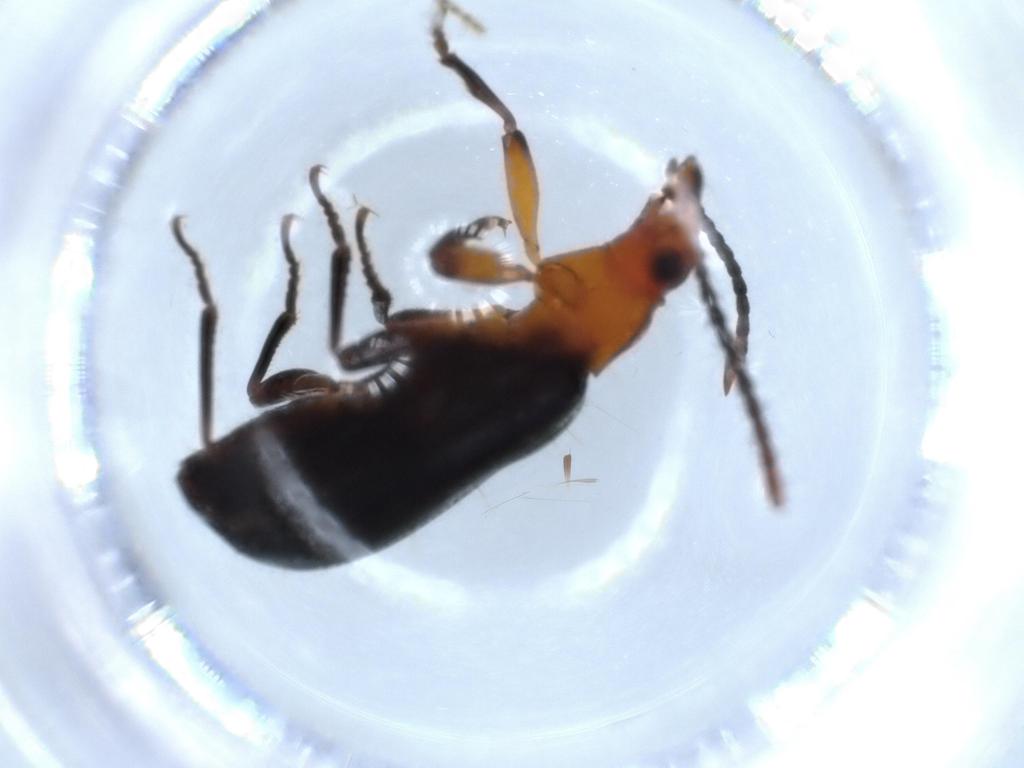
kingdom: Animalia
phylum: Arthropoda
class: Insecta
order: Coleoptera
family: Carabidae
